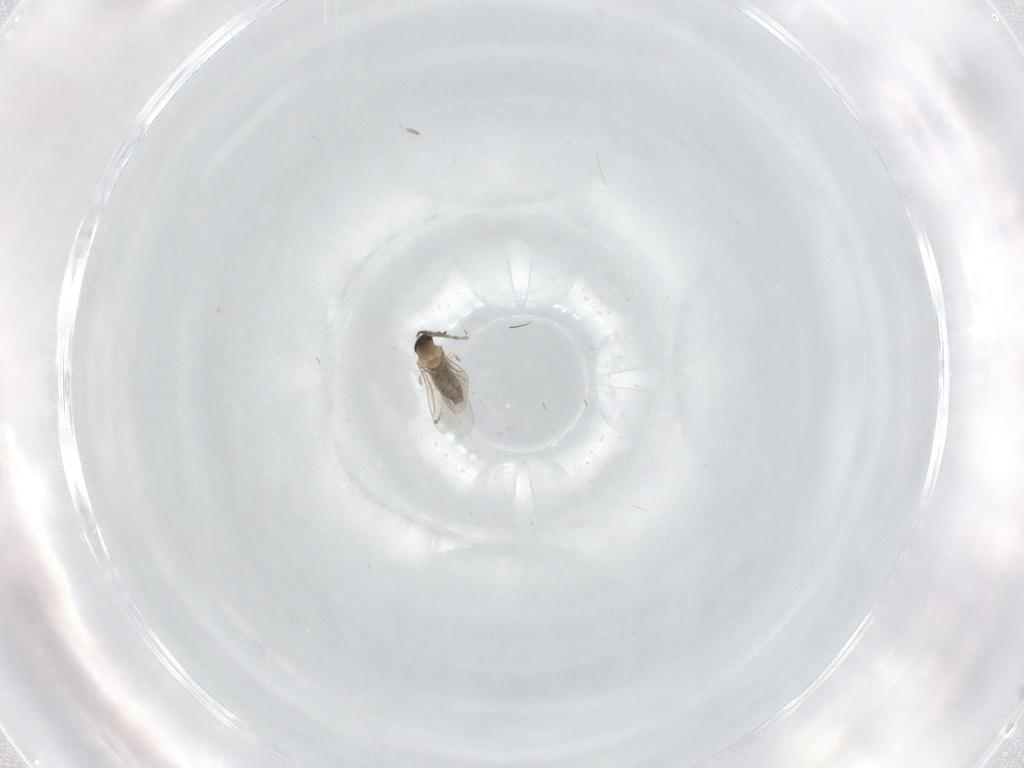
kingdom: Animalia
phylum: Arthropoda
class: Insecta
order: Diptera
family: Cecidomyiidae
